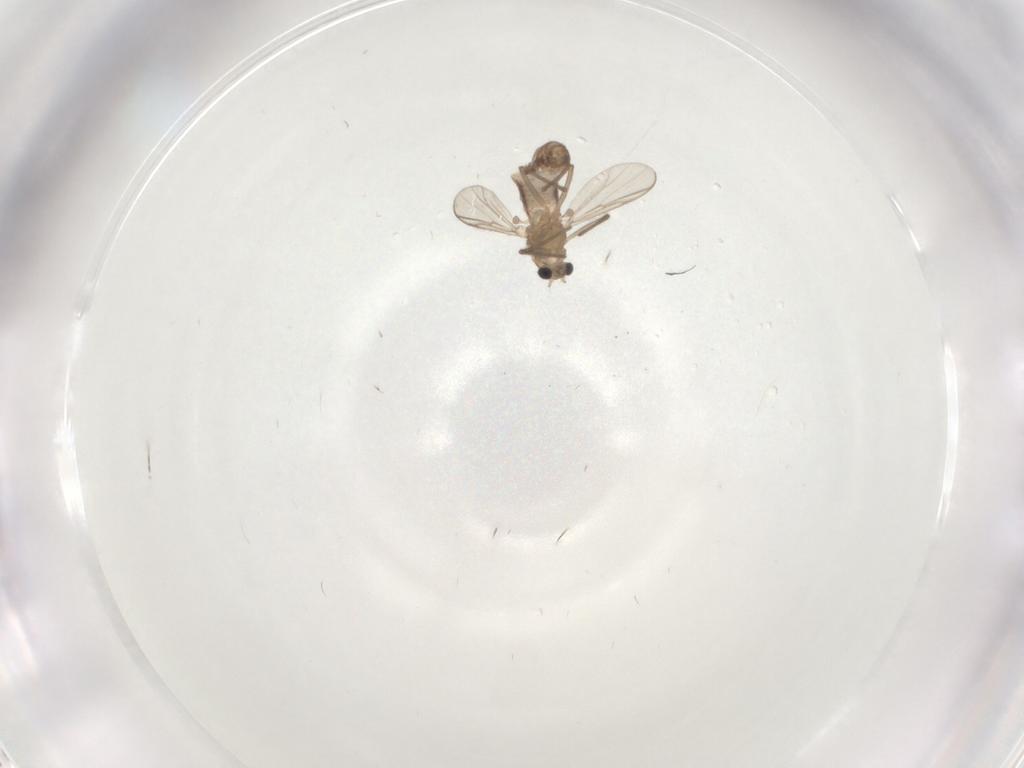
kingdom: Animalia
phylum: Arthropoda
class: Insecta
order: Diptera
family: Chironomidae
